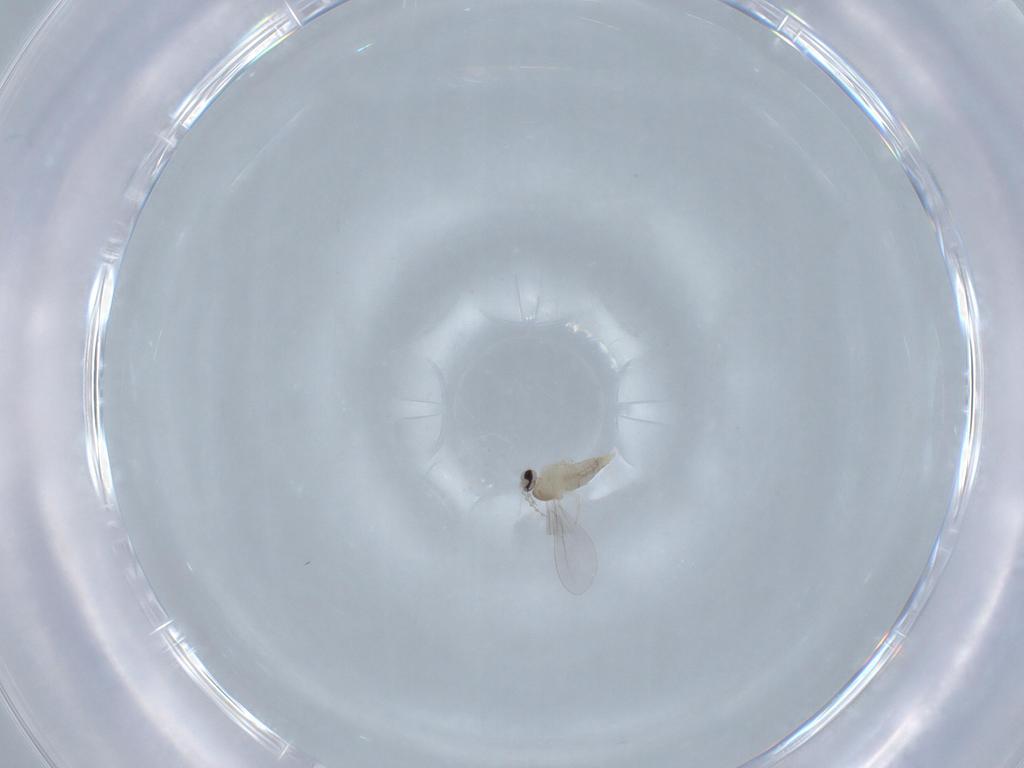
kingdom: Animalia
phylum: Arthropoda
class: Insecta
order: Diptera
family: Cecidomyiidae
